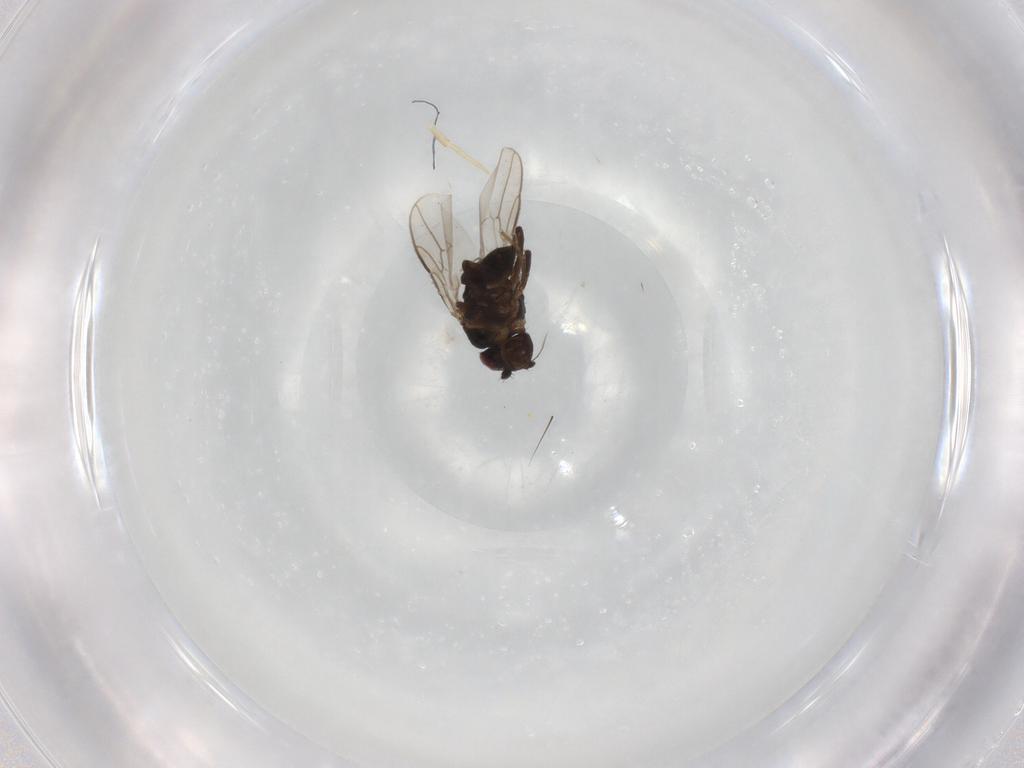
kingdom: Animalia
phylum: Arthropoda
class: Insecta
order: Diptera
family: Sphaeroceridae
